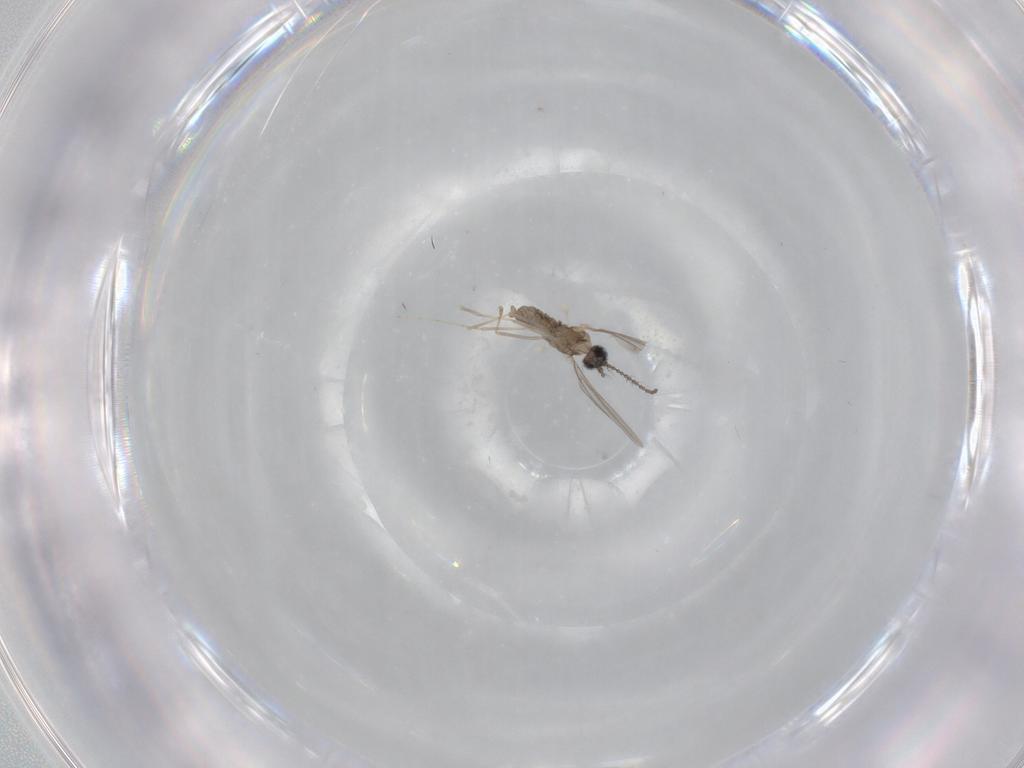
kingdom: Animalia
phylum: Arthropoda
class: Insecta
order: Diptera
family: Cecidomyiidae
